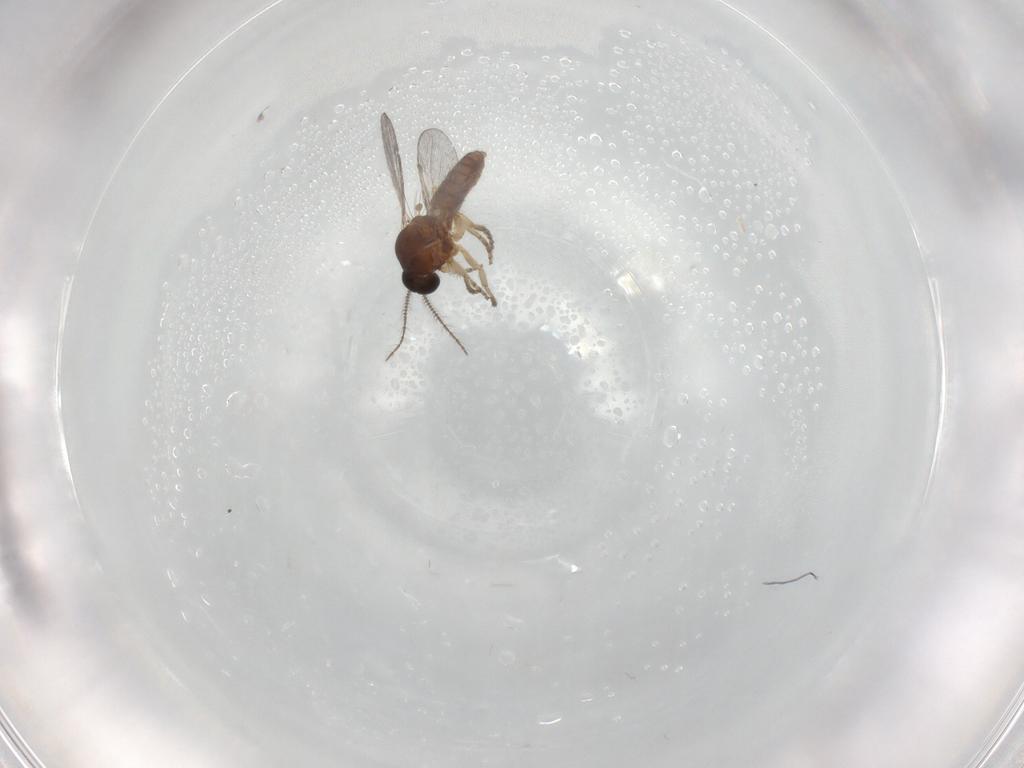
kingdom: Animalia
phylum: Arthropoda
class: Insecta
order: Diptera
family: Ceratopogonidae
